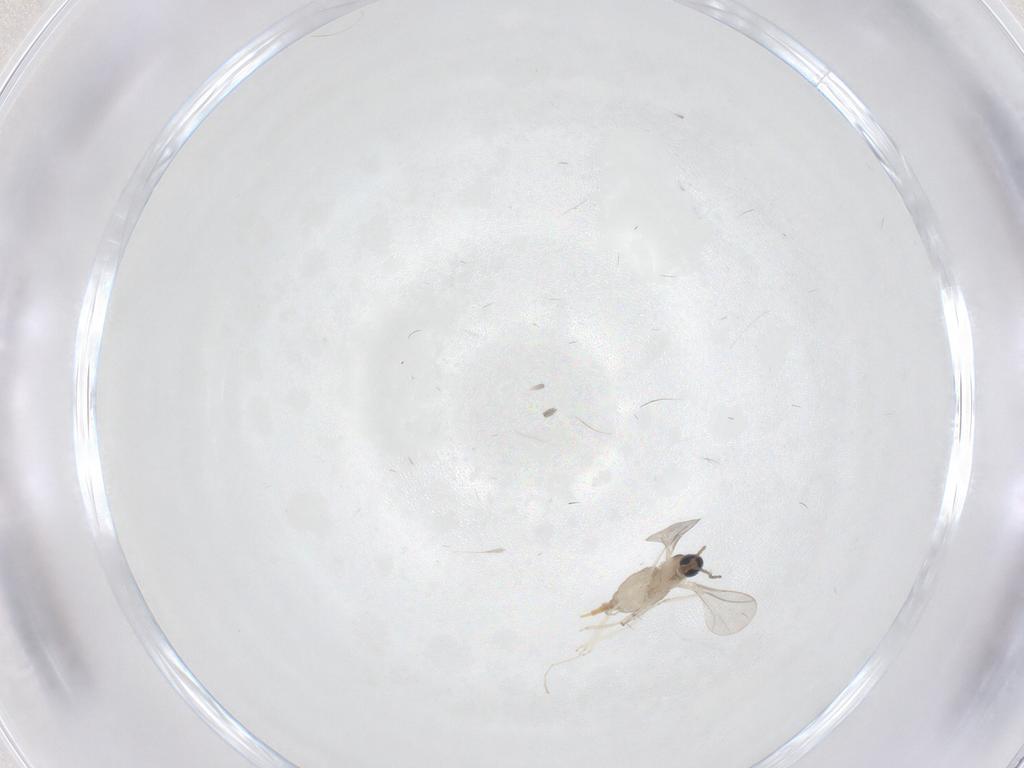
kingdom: Animalia
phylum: Arthropoda
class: Insecta
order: Diptera
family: Cecidomyiidae
